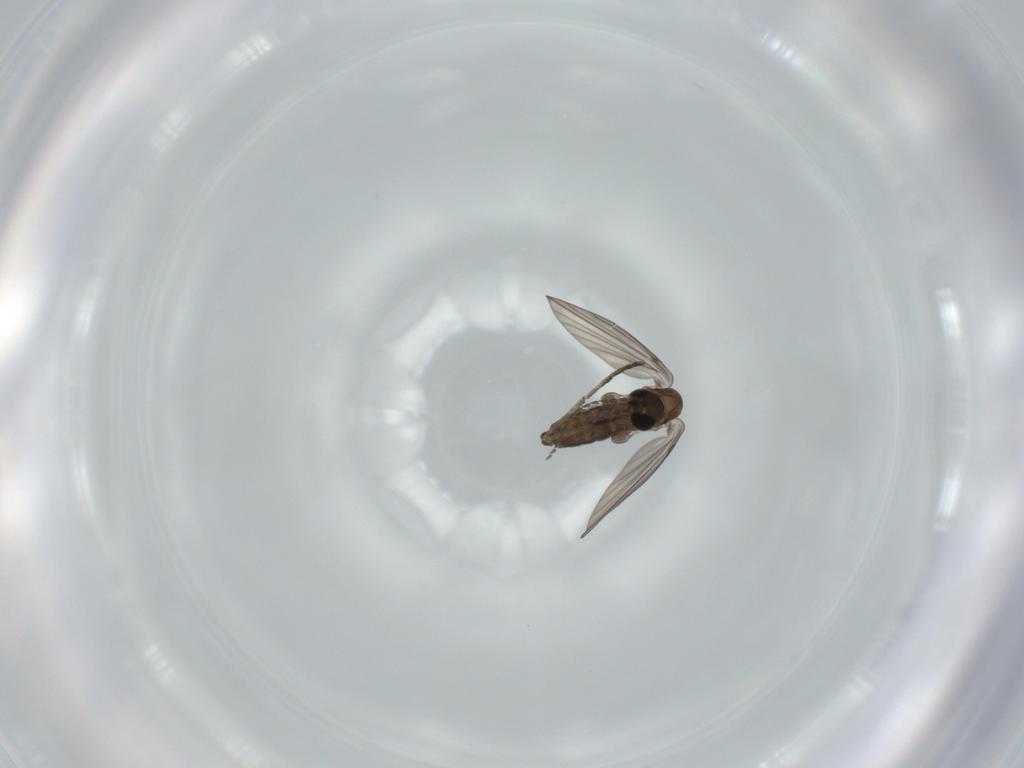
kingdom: Animalia
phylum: Arthropoda
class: Insecta
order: Diptera
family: Psychodidae
